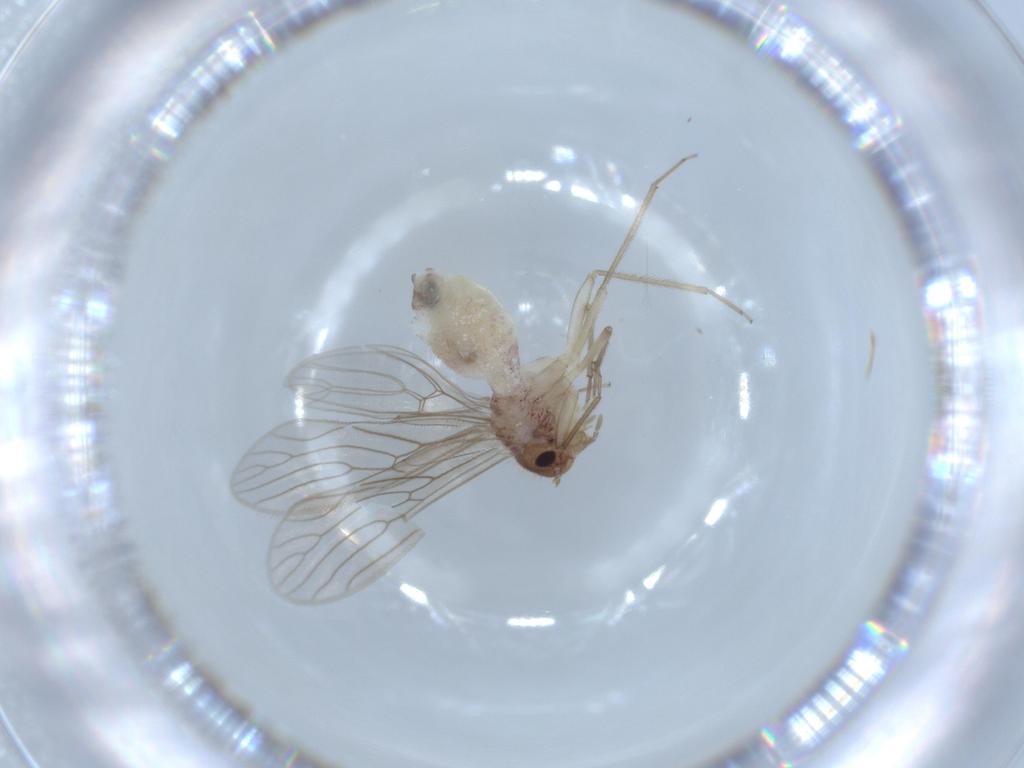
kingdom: Animalia
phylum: Arthropoda
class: Insecta
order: Psocodea
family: Cladiopsocidae
